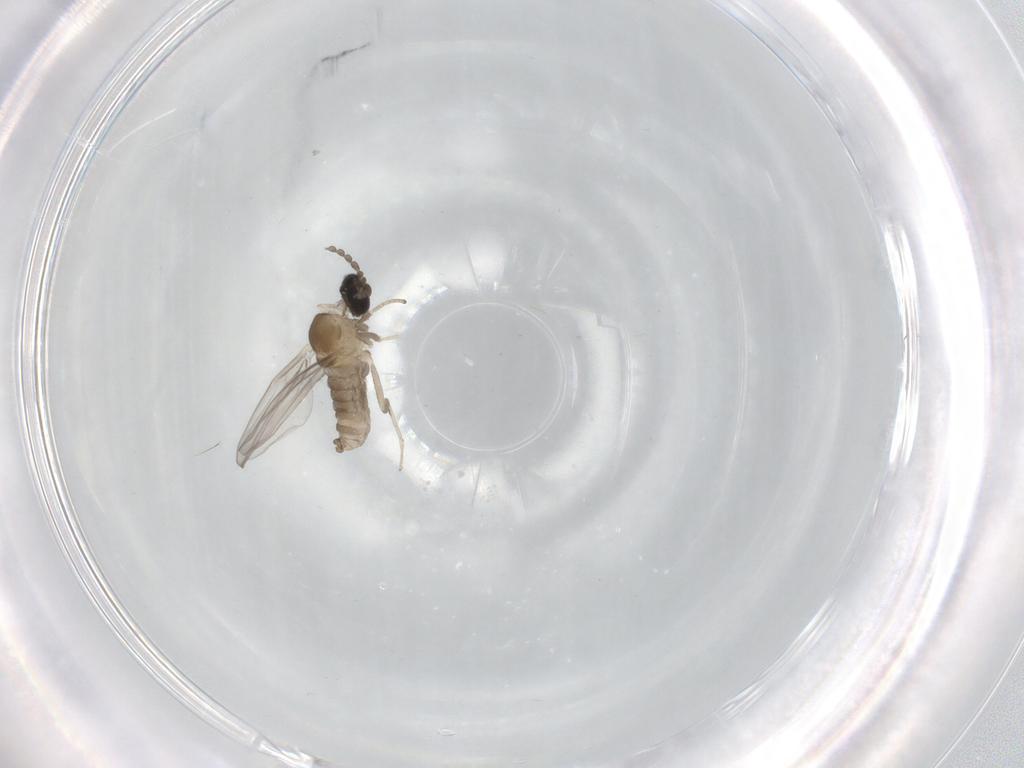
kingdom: Animalia
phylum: Arthropoda
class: Insecta
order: Diptera
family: Cecidomyiidae
